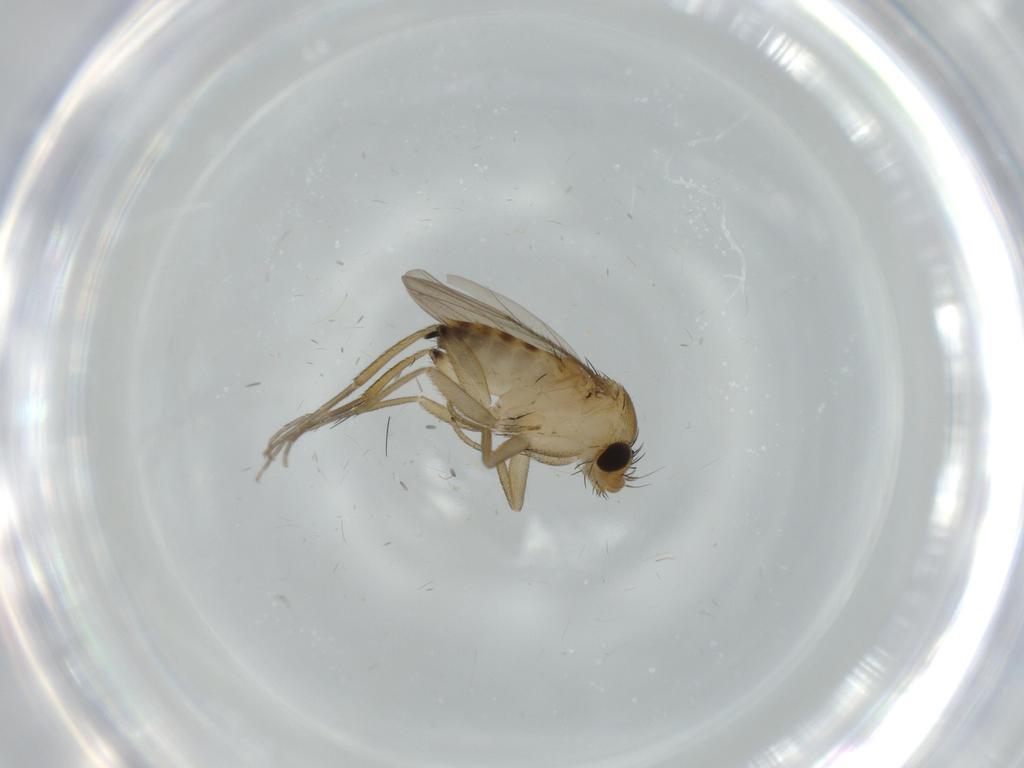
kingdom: Animalia
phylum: Arthropoda
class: Insecta
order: Diptera
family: Phoridae
